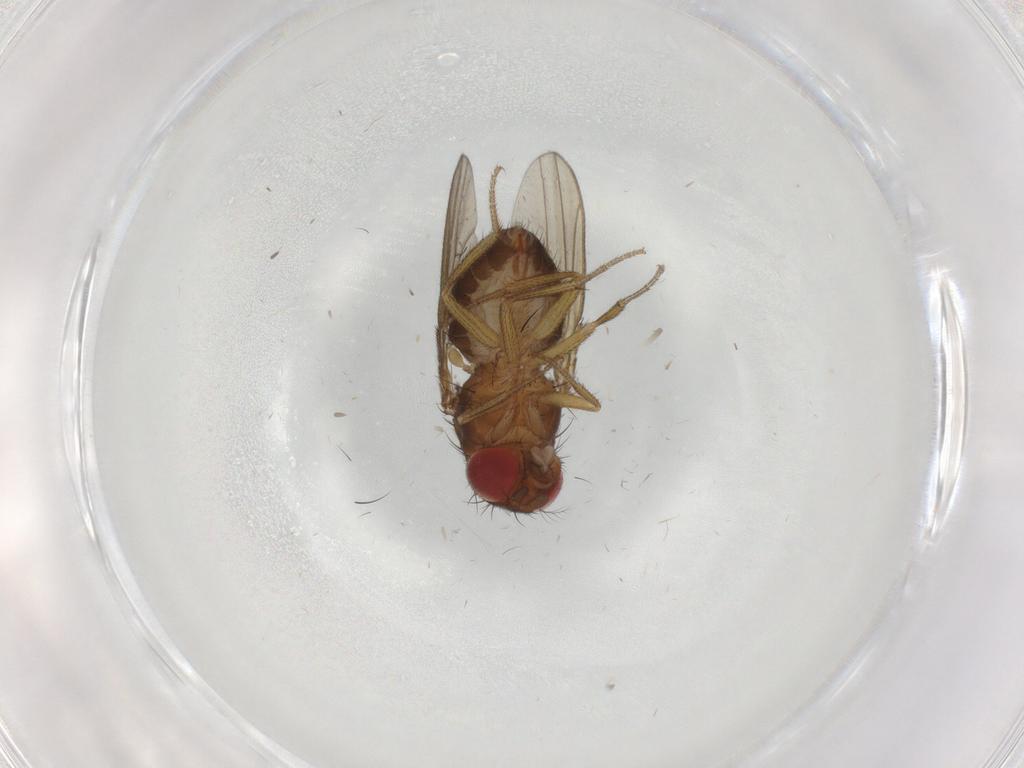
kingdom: Animalia
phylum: Arthropoda
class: Insecta
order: Diptera
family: Drosophilidae
